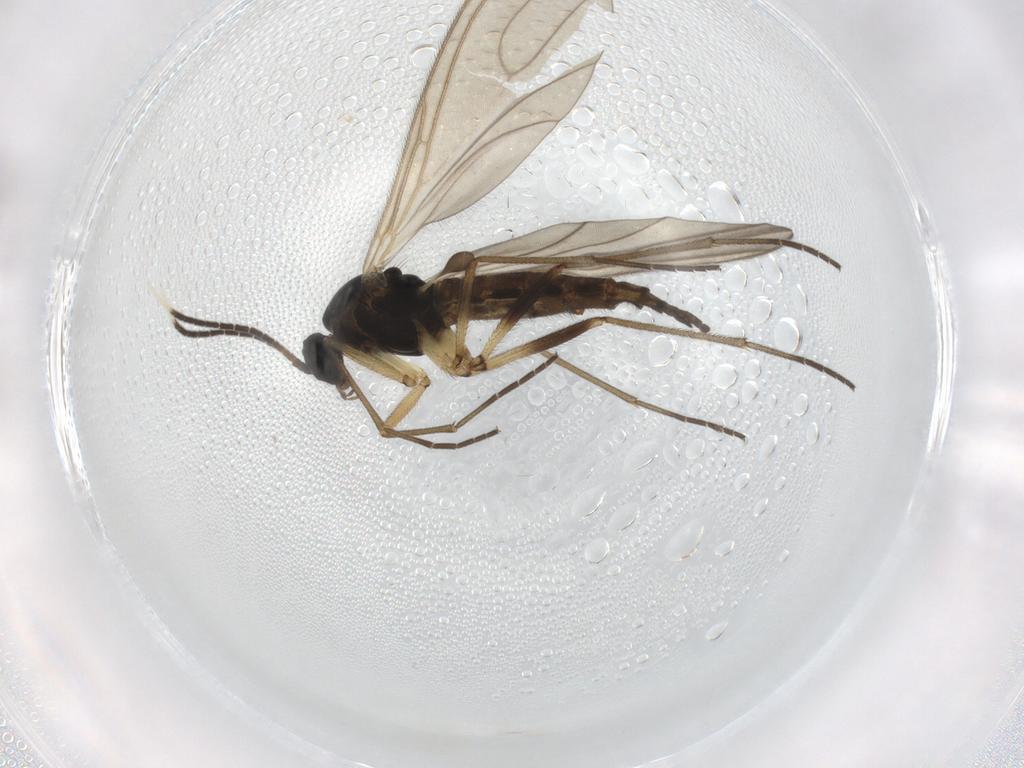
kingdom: Animalia
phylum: Arthropoda
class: Insecta
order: Diptera
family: Sciaridae
